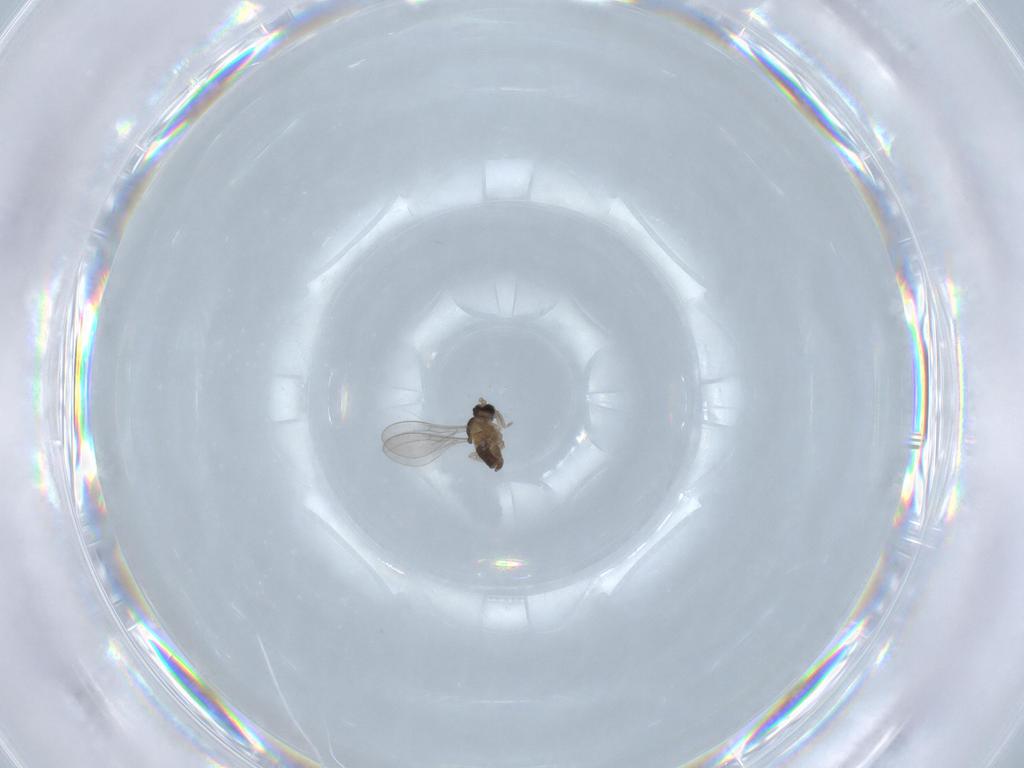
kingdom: Animalia
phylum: Arthropoda
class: Insecta
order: Diptera
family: Cecidomyiidae
